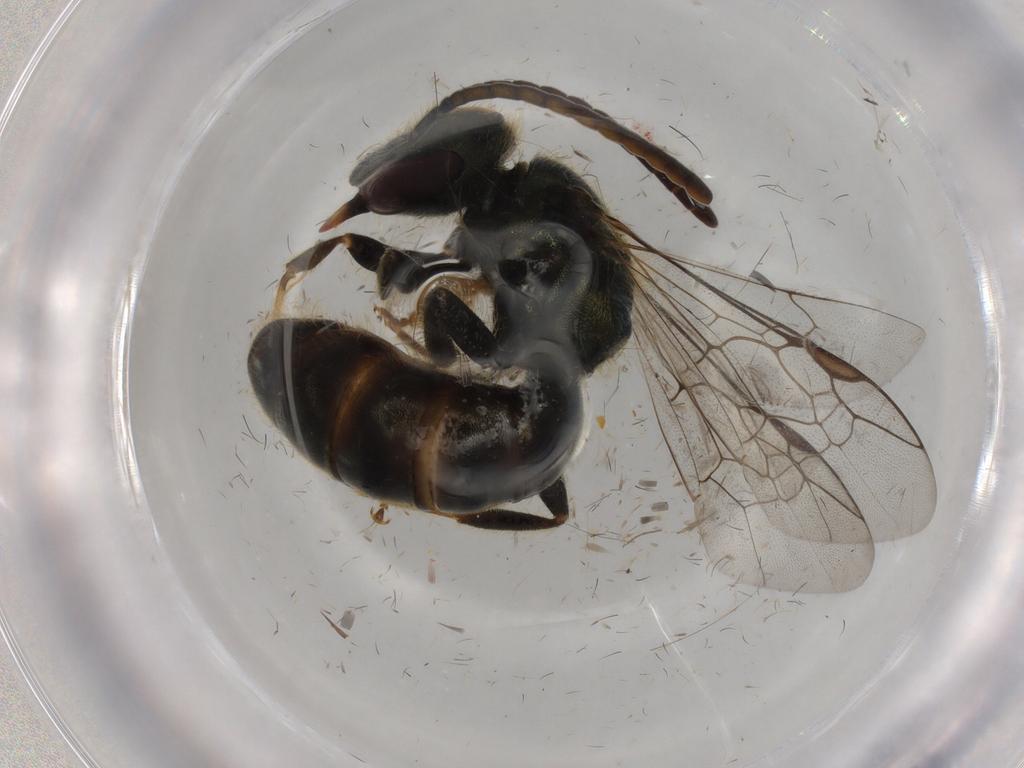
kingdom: Animalia
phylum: Arthropoda
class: Insecta
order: Hymenoptera
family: Halictidae
